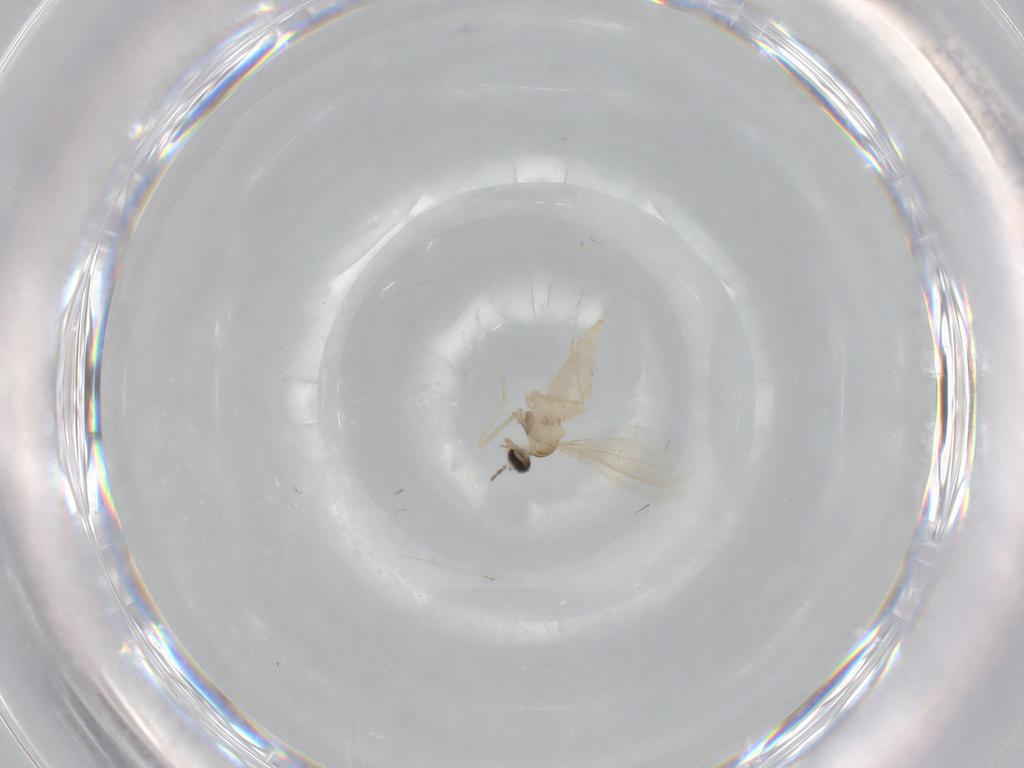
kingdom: Animalia
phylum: Arthropoda
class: Insecta
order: Diptera
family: Cecidomyiidae
